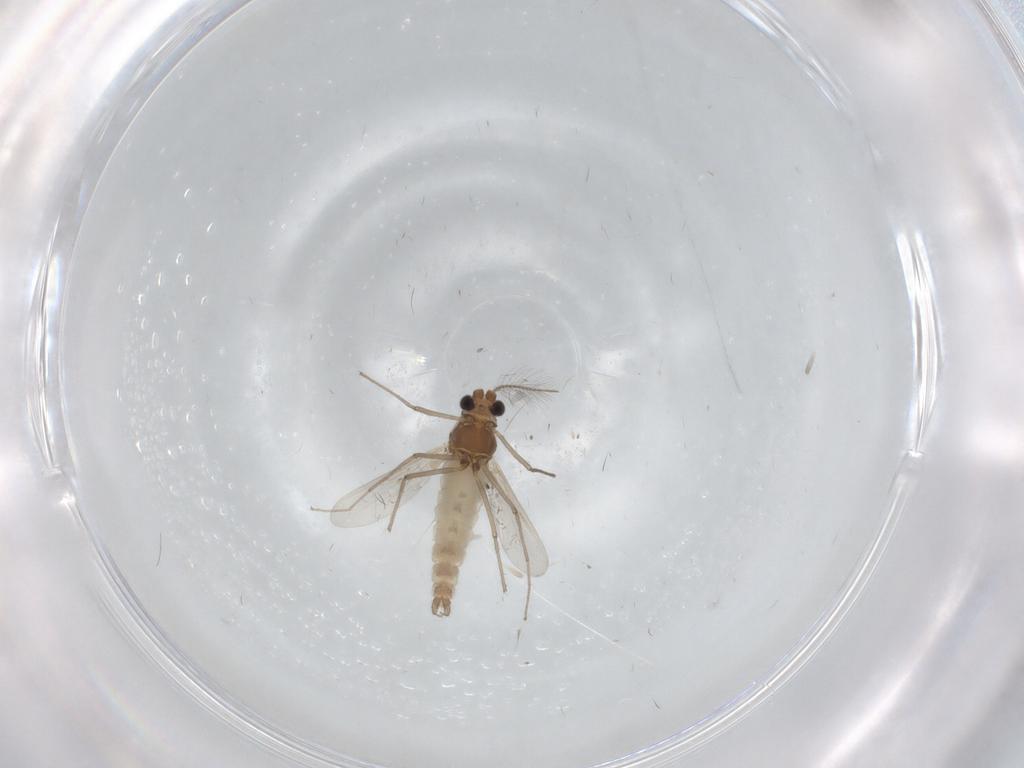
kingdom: Animalia
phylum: Arthropoda
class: Insecta
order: Diptera
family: Chironomidae
